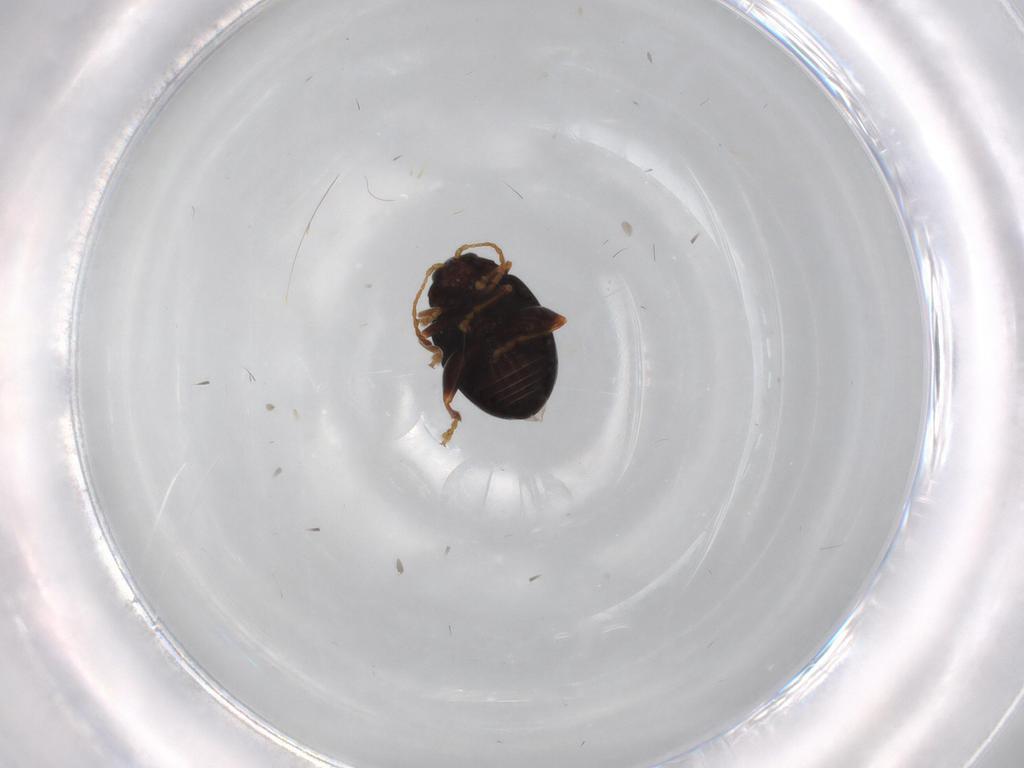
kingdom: Animalia
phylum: Arthropoda
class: Insecta
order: Coleoptera
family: Chrysomelidae
